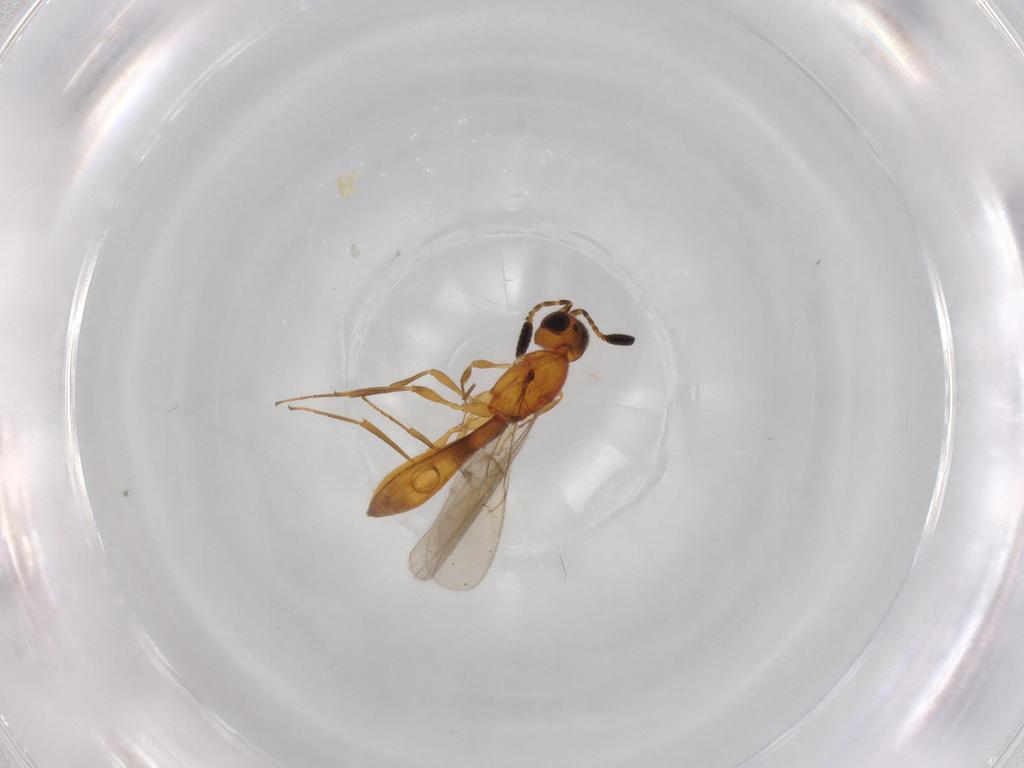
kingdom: Animalia
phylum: Arthropoda
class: Insecta
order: Hymenoptera
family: Scelionidae
